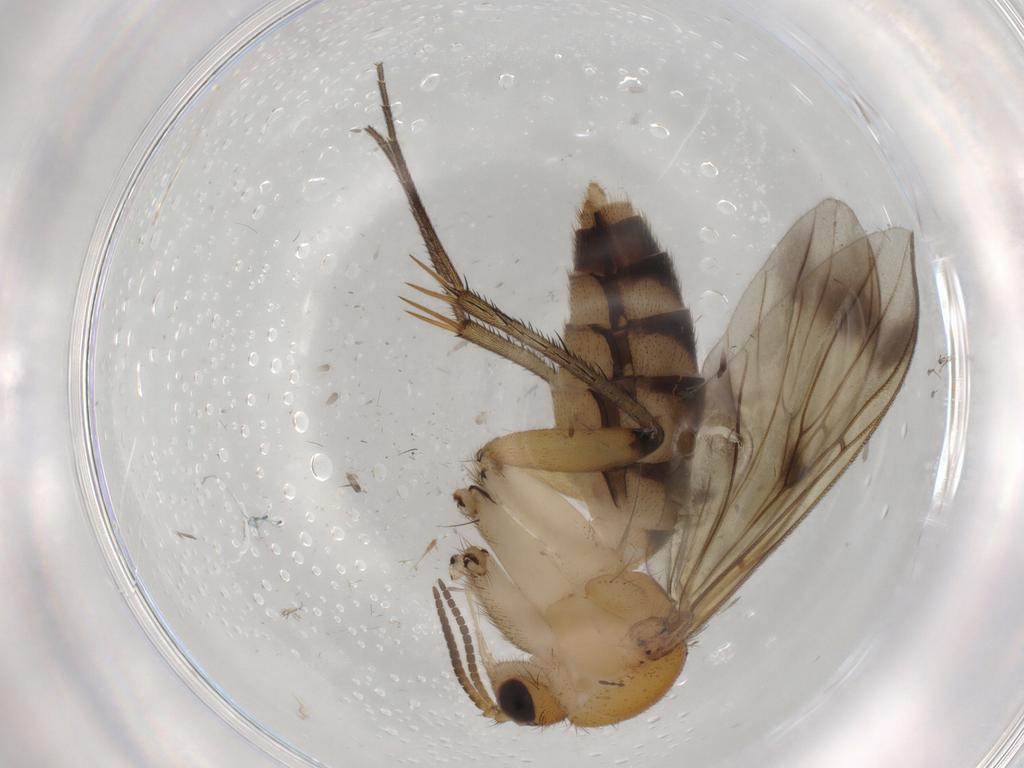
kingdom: Animalia
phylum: Arthropoda
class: Insecta
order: Diptera
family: Mycetophilidae
